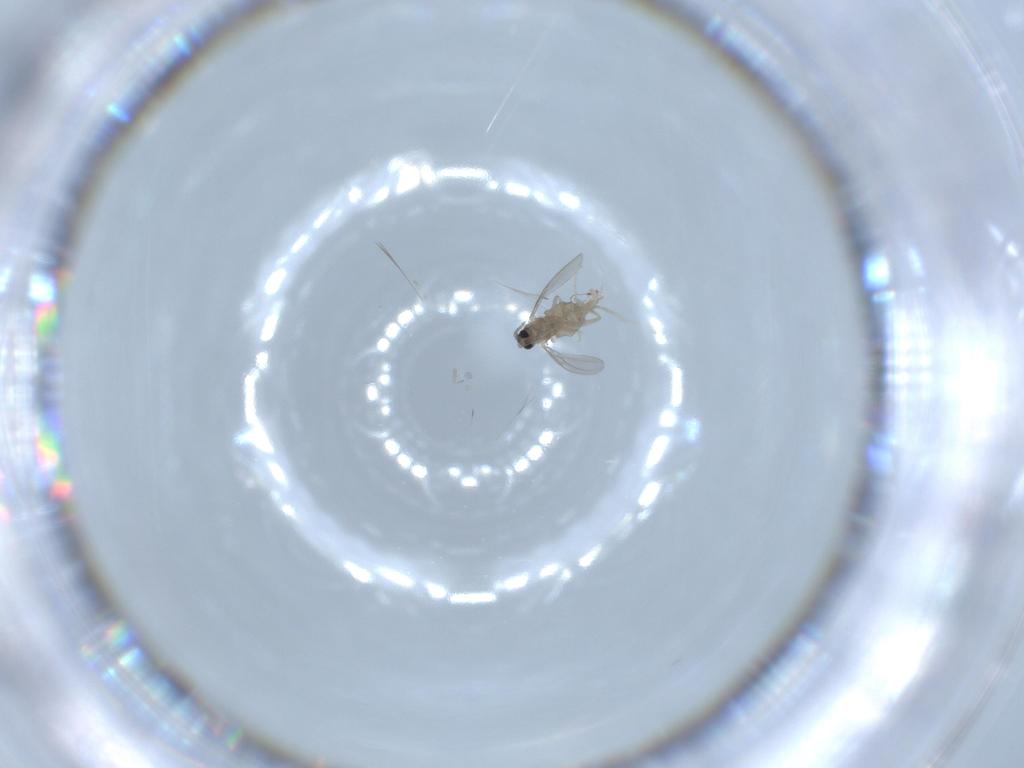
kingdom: Animalia
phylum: Arthropoda
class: Insecta
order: Diptera
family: Cecidomyiidae
